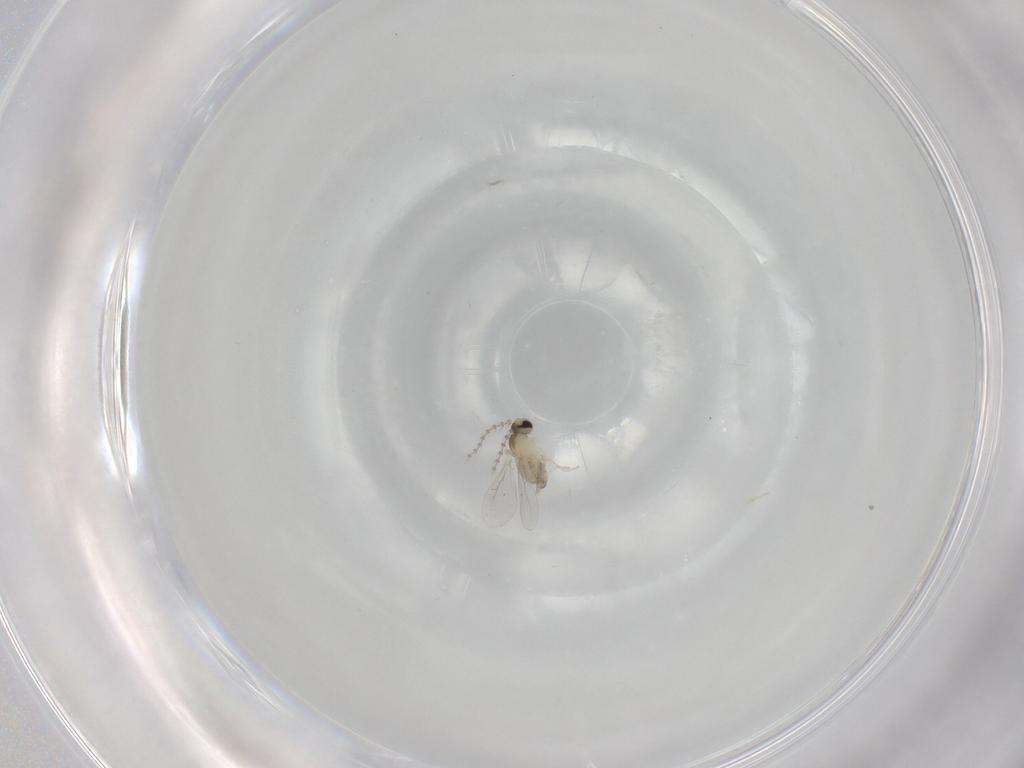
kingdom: Animalia
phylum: Arthropoda
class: Insecta
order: Diptera
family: Cecidomyiidae
